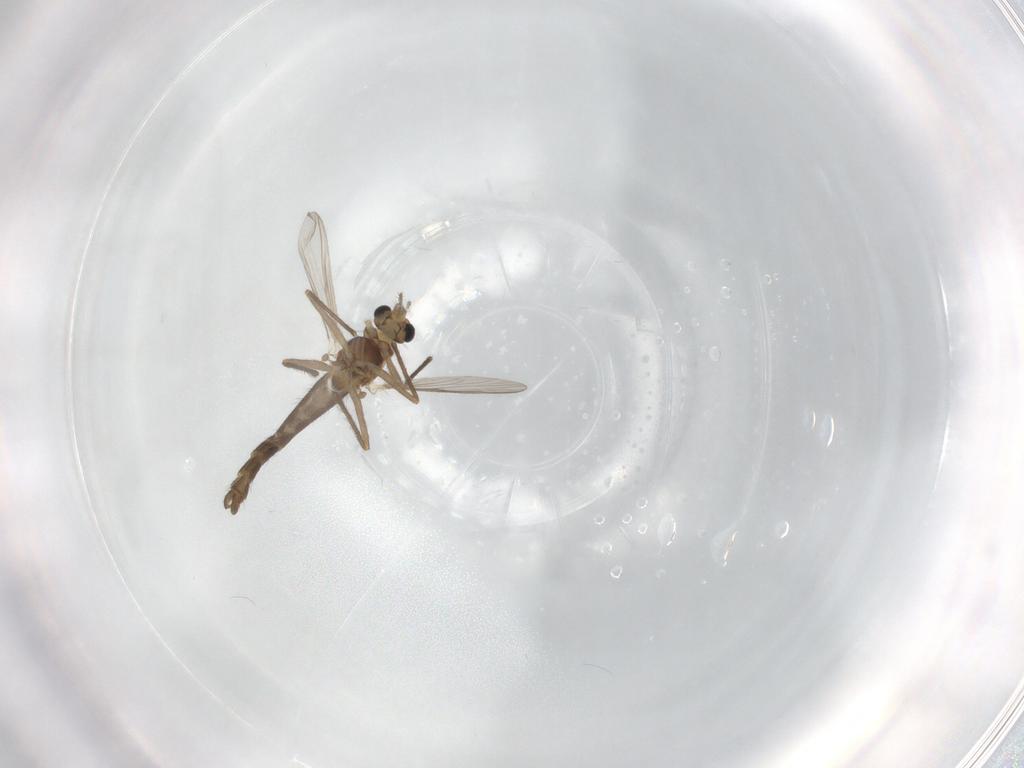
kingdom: Animalia
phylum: Arthropoda
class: Insecta
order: Diptera
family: Chironomidae
